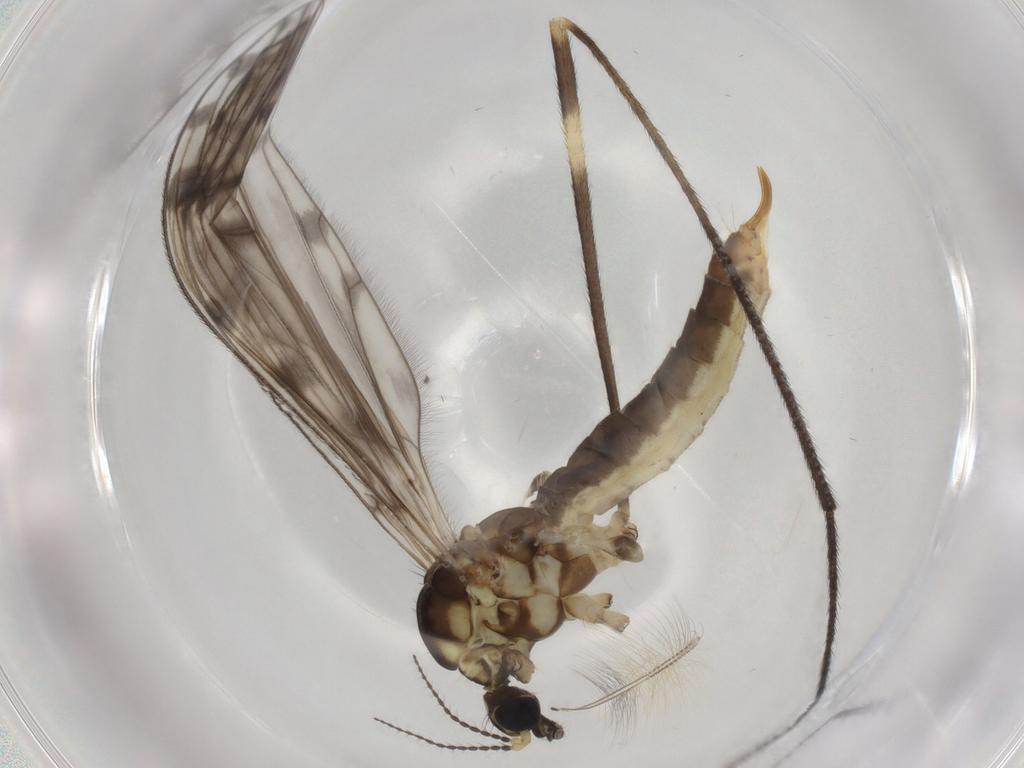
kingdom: Animalia
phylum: Arthropoda
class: Insecta
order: Diptera
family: Limoniidae
